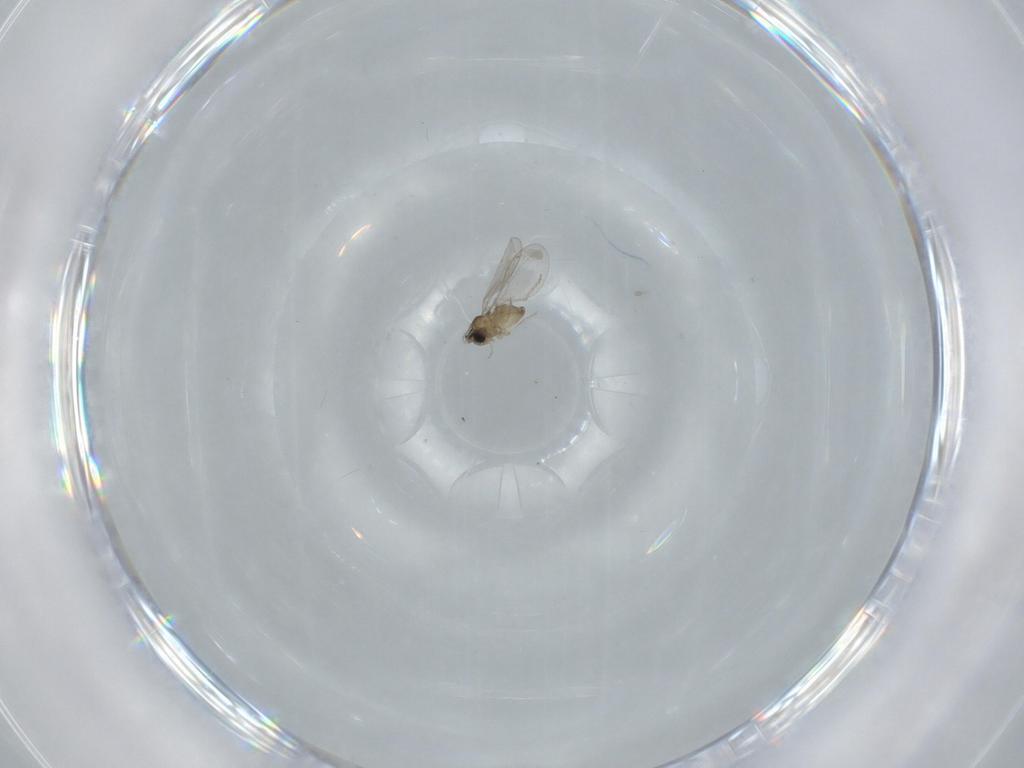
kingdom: Animalia
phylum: Arthropoda
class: Insecta
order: Diptera
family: Cecidomyiidae
